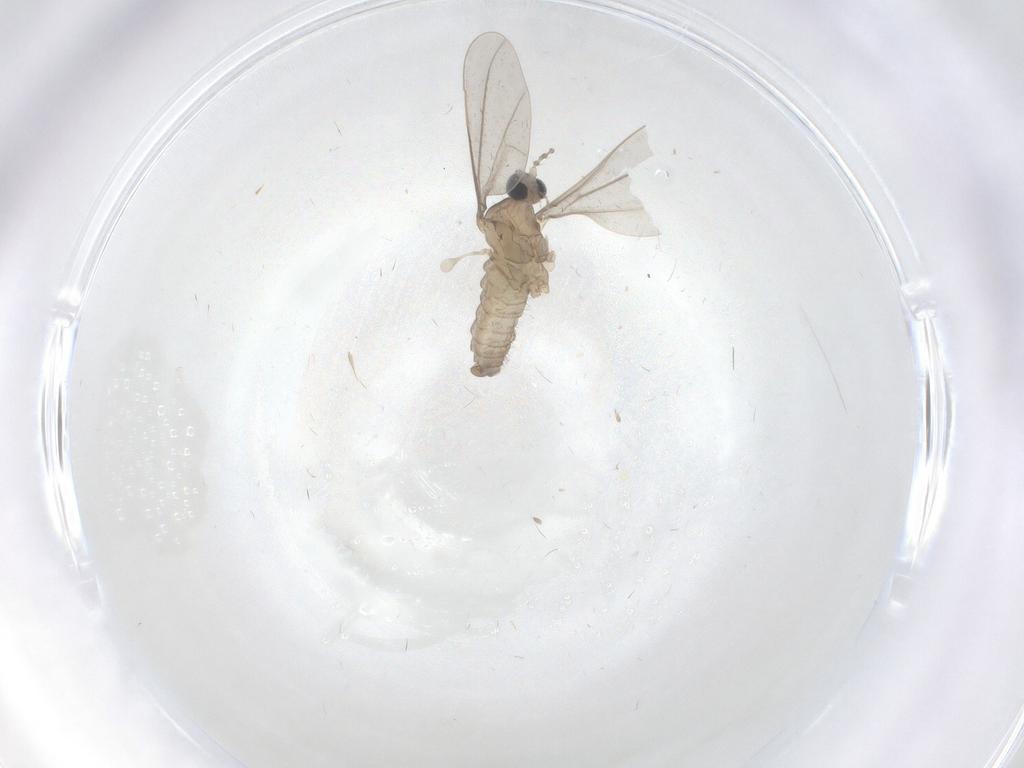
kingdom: Animalia
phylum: Arthropoda
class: Insecta
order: Diptera
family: Cecidomyiidae
